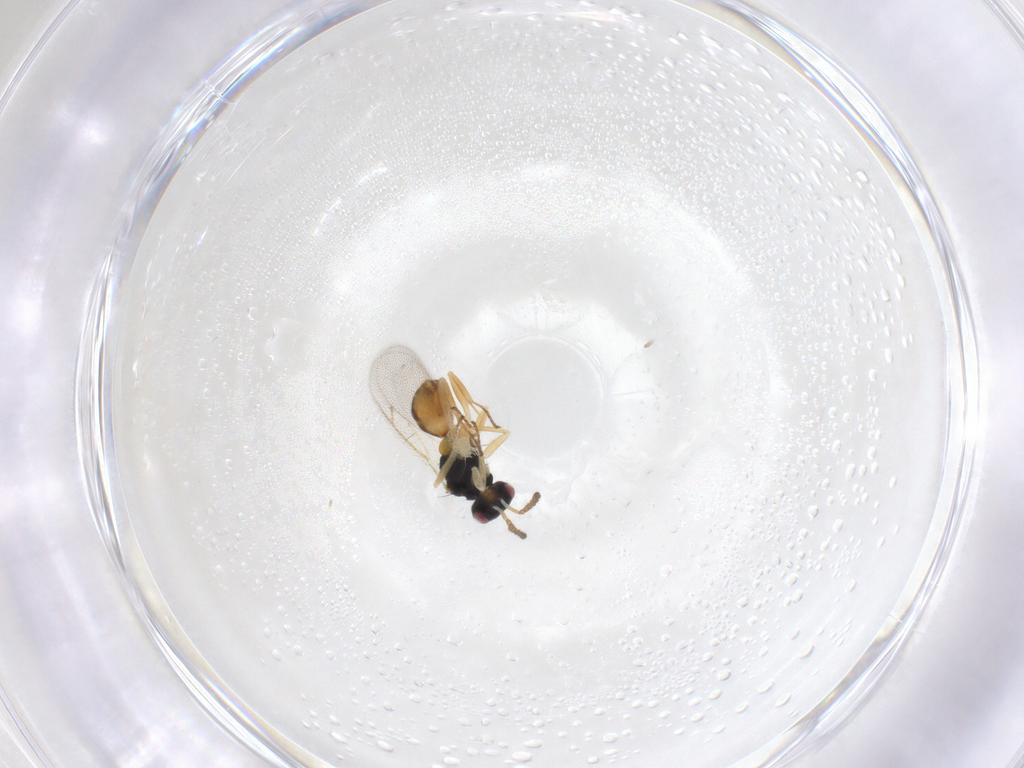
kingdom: Animalia
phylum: Arthropoda
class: Insecta
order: Hymenoptera
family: Eulophidae
